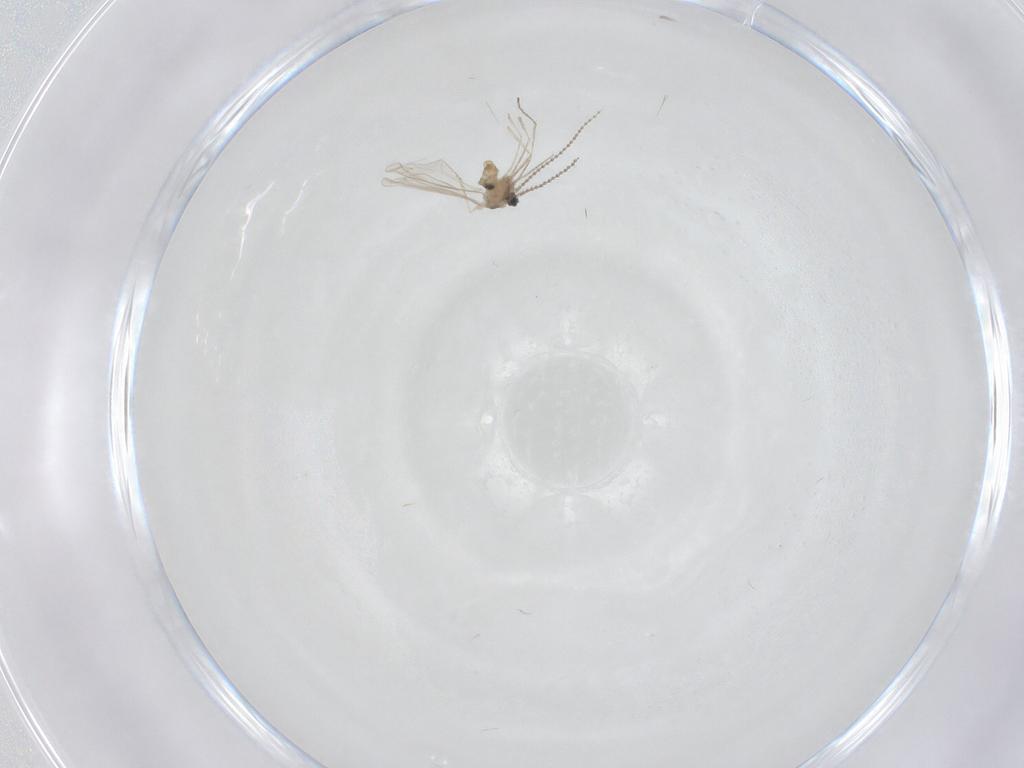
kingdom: Animalia
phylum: Arthropoda
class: Insecta
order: Diptera
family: Cecidomyiidae
